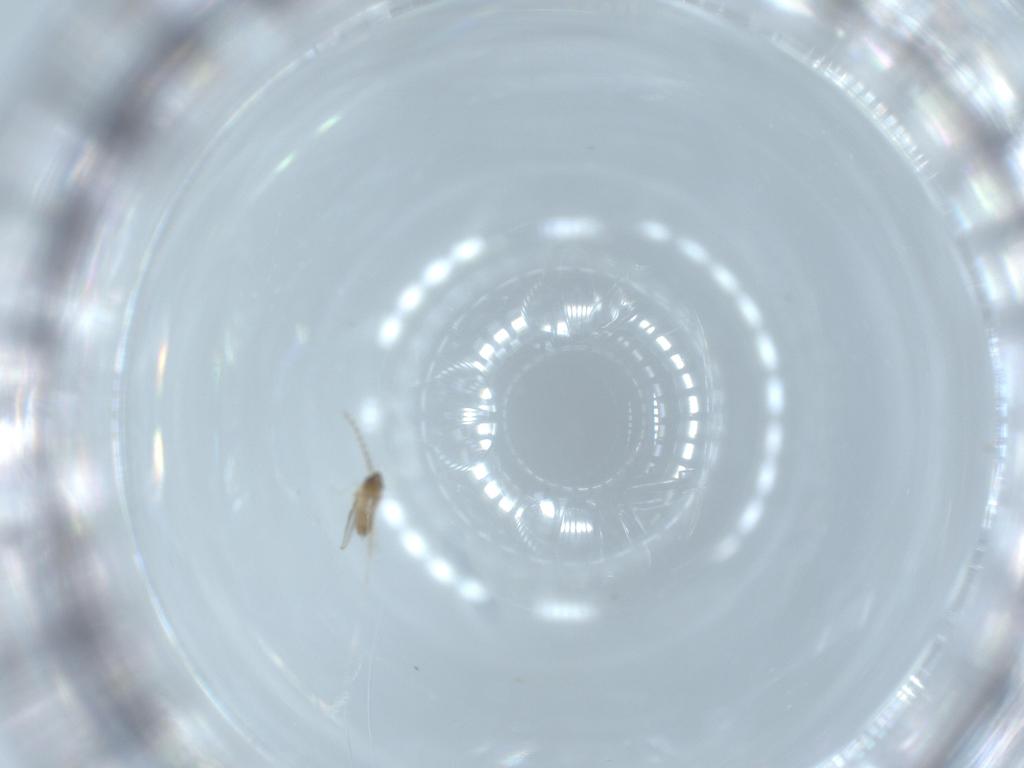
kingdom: Animalia
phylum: Arthropoda
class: Insecta
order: Diptera
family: Cecidomyiidae
